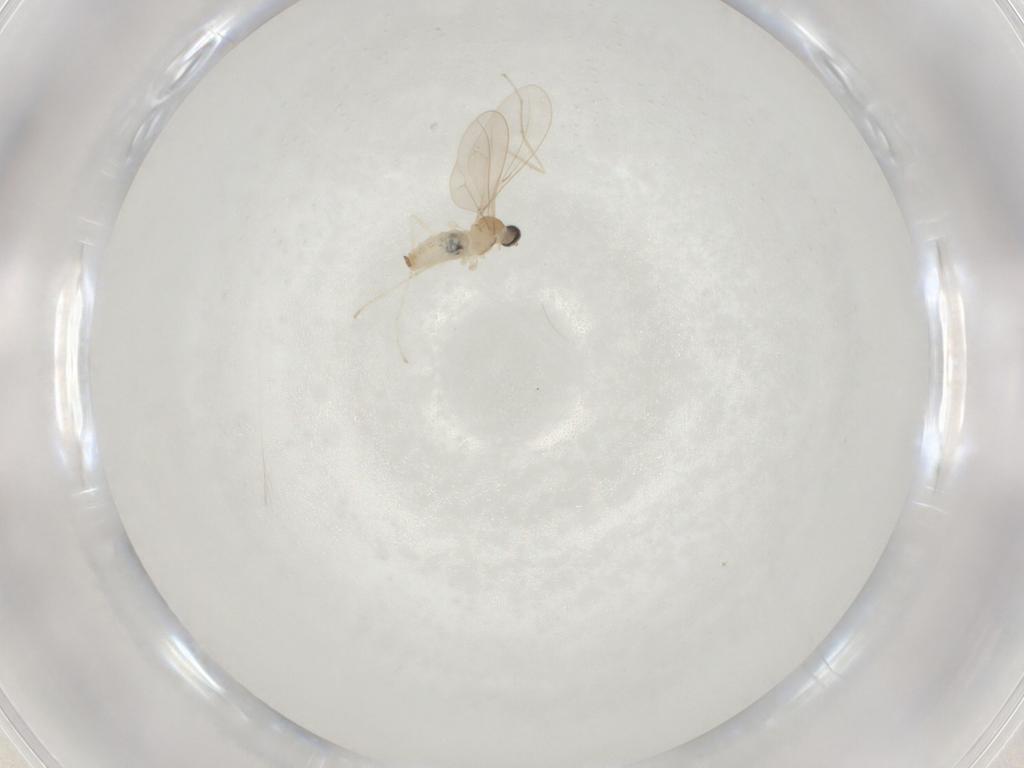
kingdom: Animalia
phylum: Arthropoda
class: Insecta
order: Diptera
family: Cecidomyiidae
